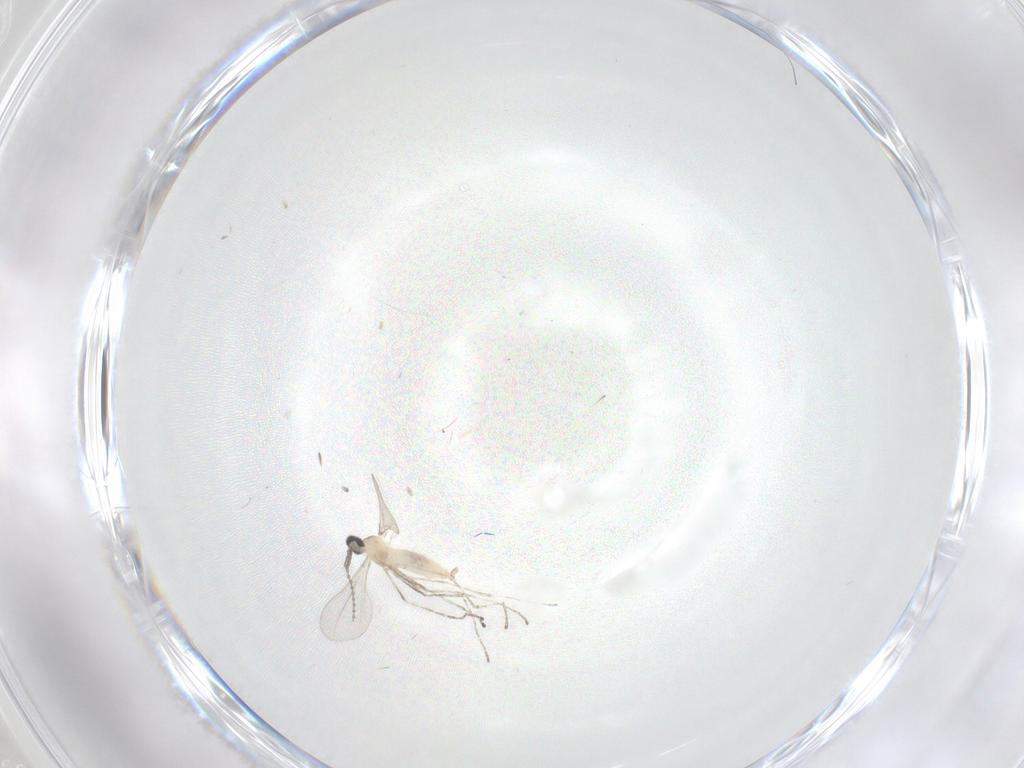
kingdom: Animalia
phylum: Arthropoda
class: Insecta
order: Diptera
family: Cecidomyiidae
